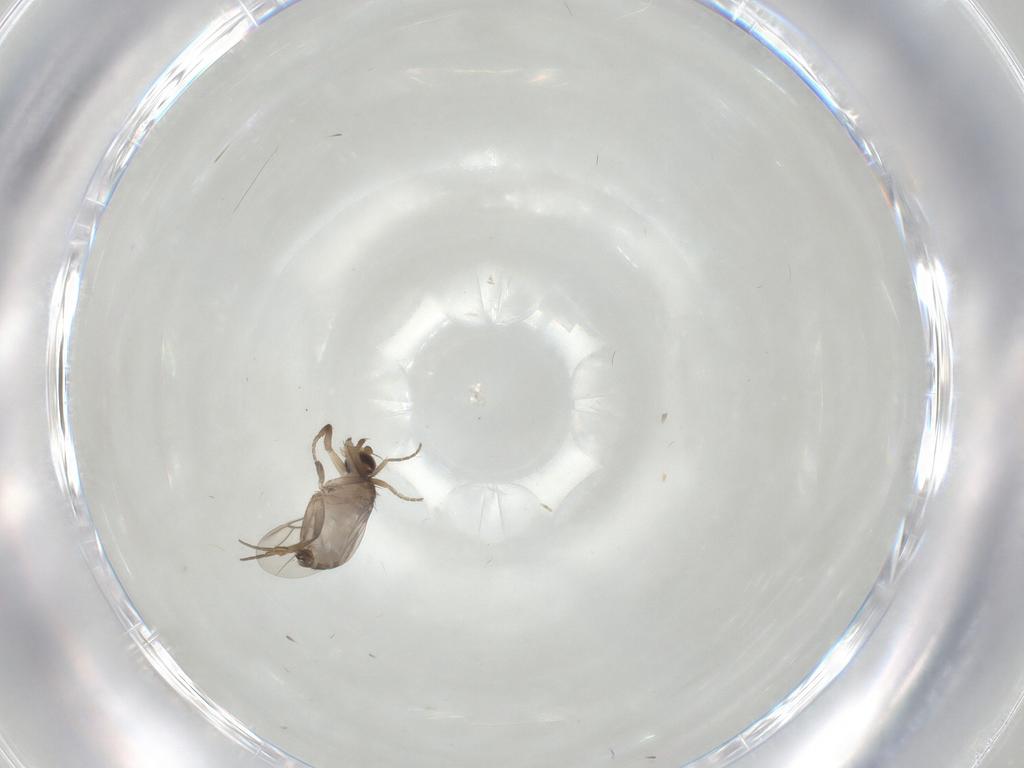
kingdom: Animalia
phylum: Arthropoda
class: Insecta
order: Diptera
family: Phoridae
